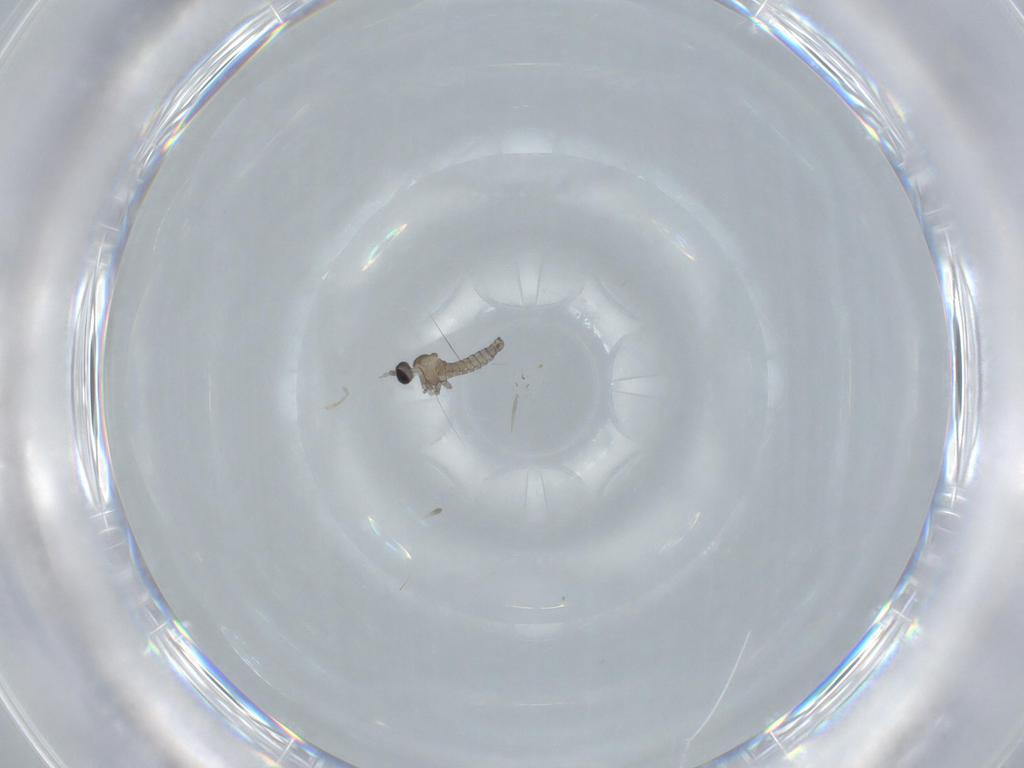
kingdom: Animalia
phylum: Arthropoda
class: Insecta
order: Diptera
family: Cecidomyiidae
